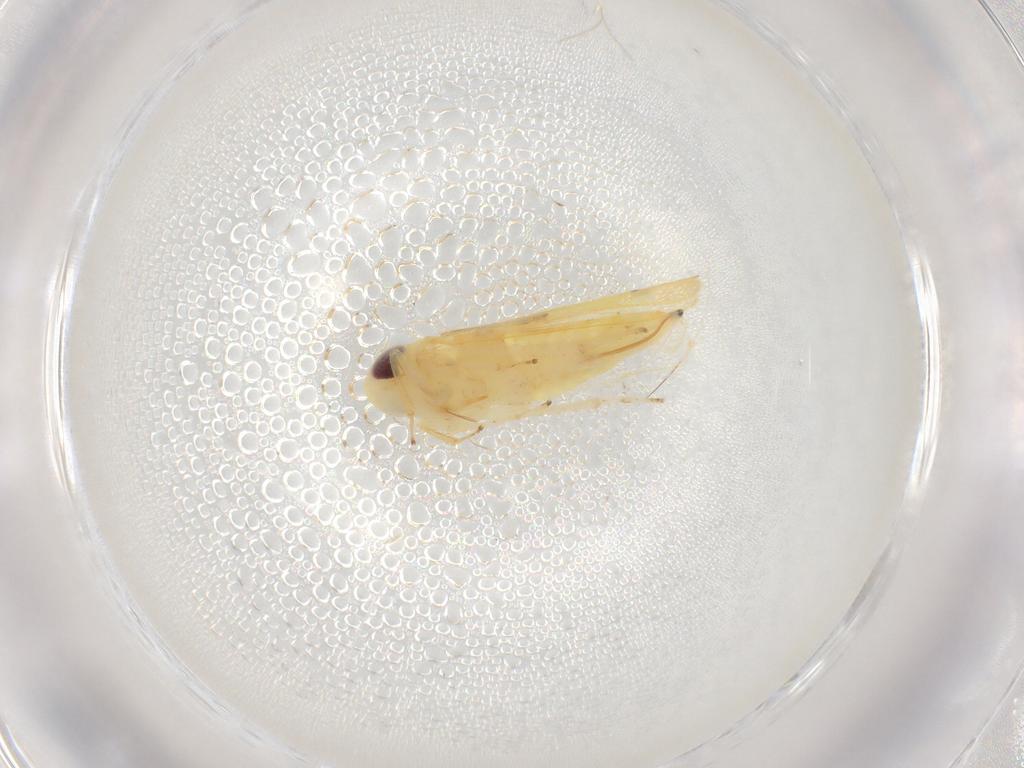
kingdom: Animalia
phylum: Arthropoda
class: Insecta
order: Hemiptera
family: Cicadellidae
